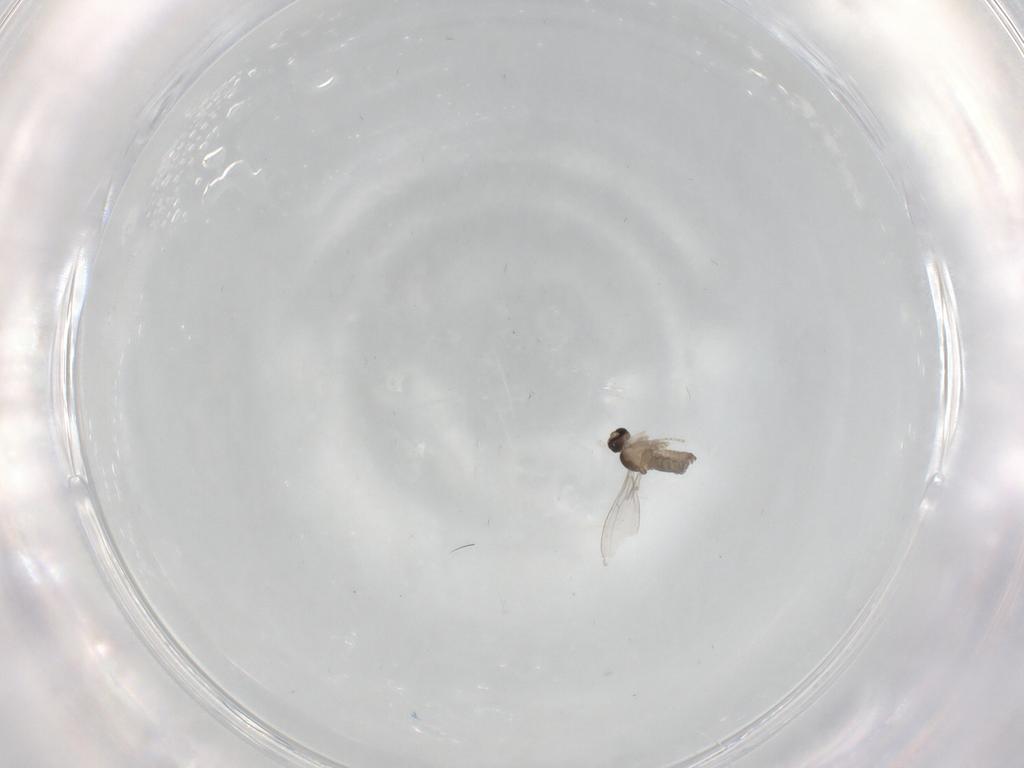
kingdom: Animalia
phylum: Arthropoda
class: Insecta
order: Diptera
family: Cecidomyiidae
